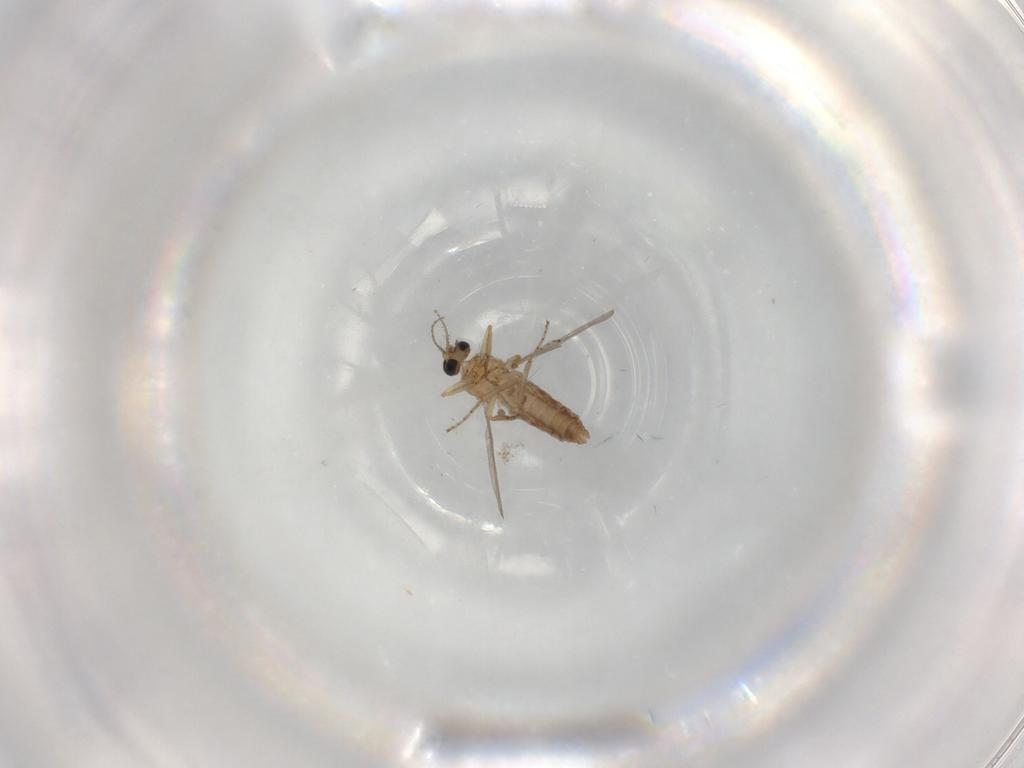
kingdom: Animalia
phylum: Arthropoda
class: Insecta
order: Diptera
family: Ceratopogonidae
